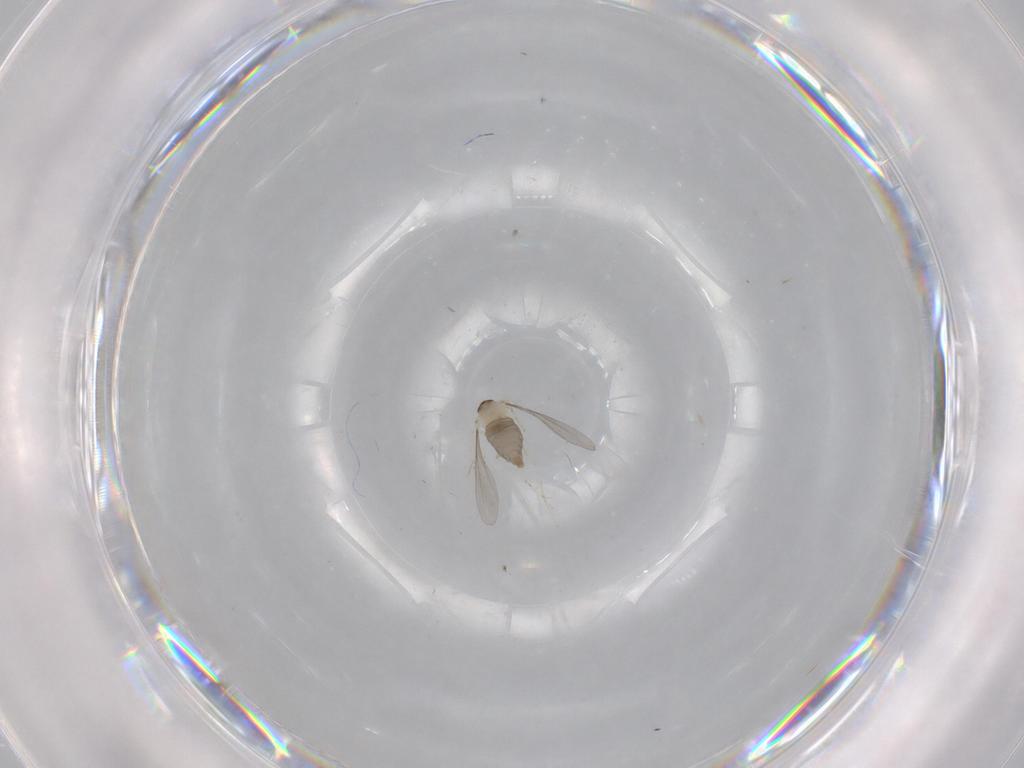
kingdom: Animalia
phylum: Arthropoda
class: Insecta
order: Diptera
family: Cecidomyiidae
